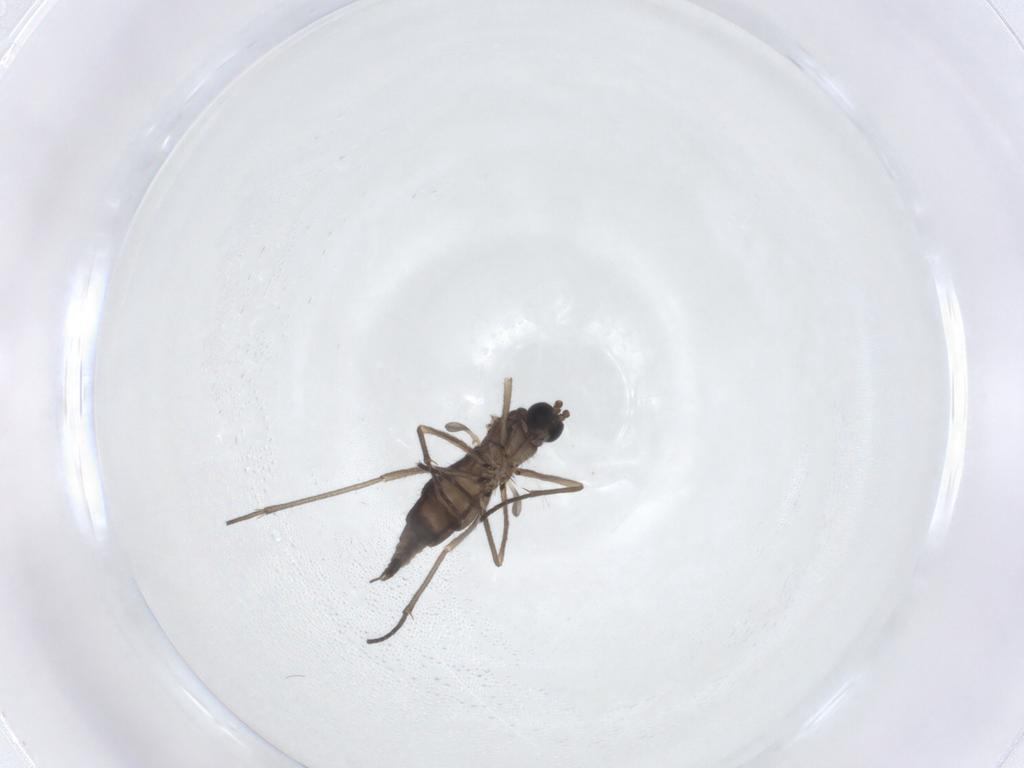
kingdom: Animalia
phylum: Arthropoda
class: Insecta
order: Diptera
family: Sciaridae
